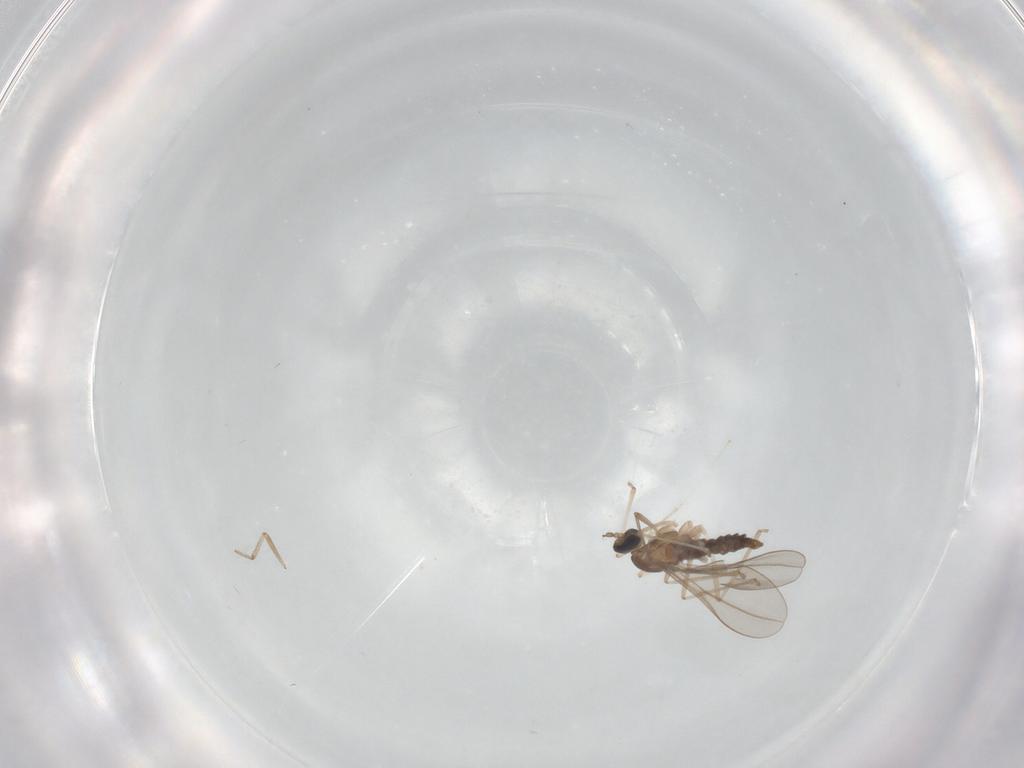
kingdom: Animalia
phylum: Arthropoda
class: Insecta
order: Diptera
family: Cecidomyiidae
